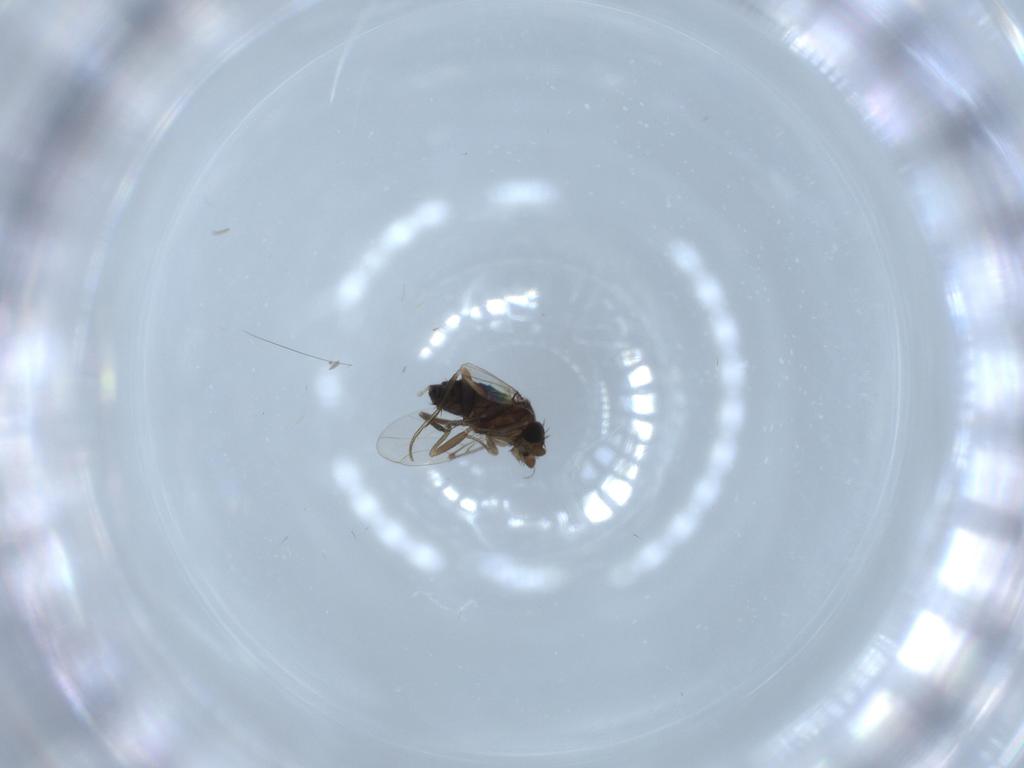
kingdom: Animalia
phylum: Arthropoda
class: Insecta
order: Diptera
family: Phoridae
